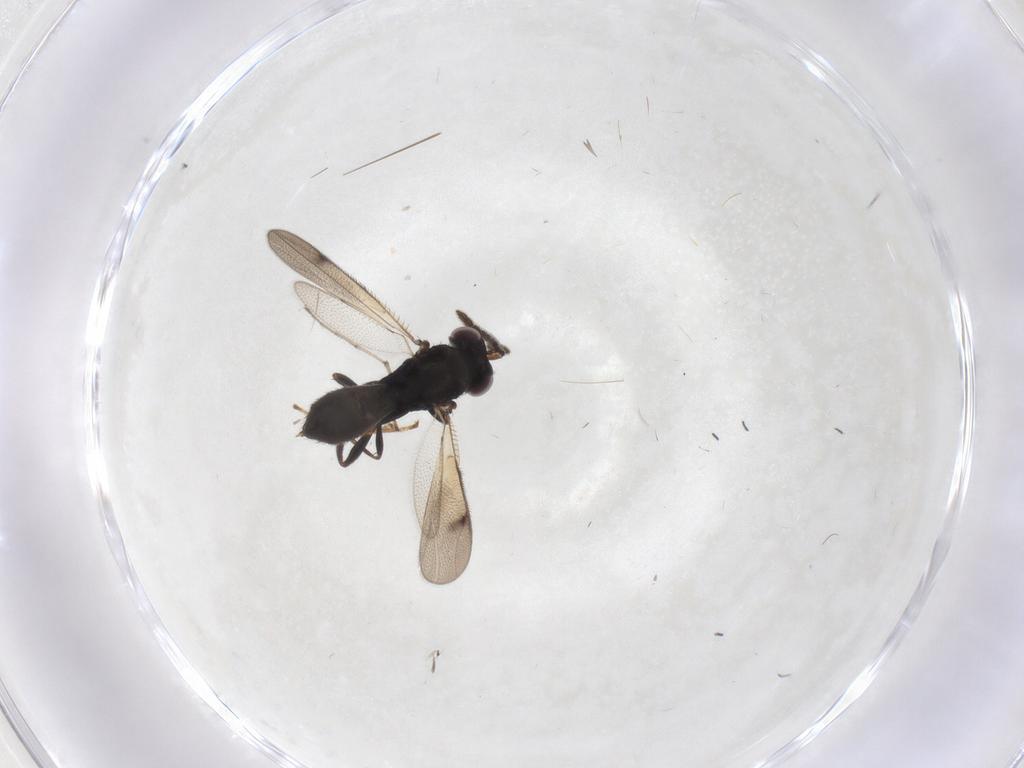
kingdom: Animalia
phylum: Arthropoda
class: Insecta
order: Hymenoptera
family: Pteromalidae
